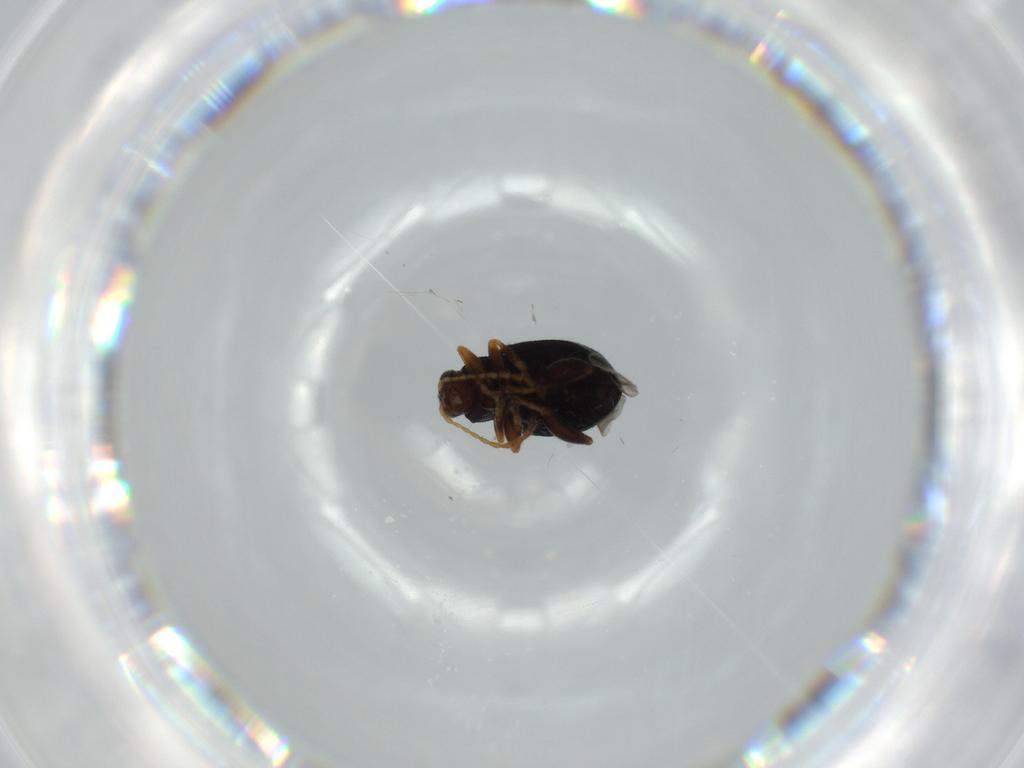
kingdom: Animalia
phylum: Arthropoda
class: Insecta
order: Coleoptera
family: Chrysomelidae
